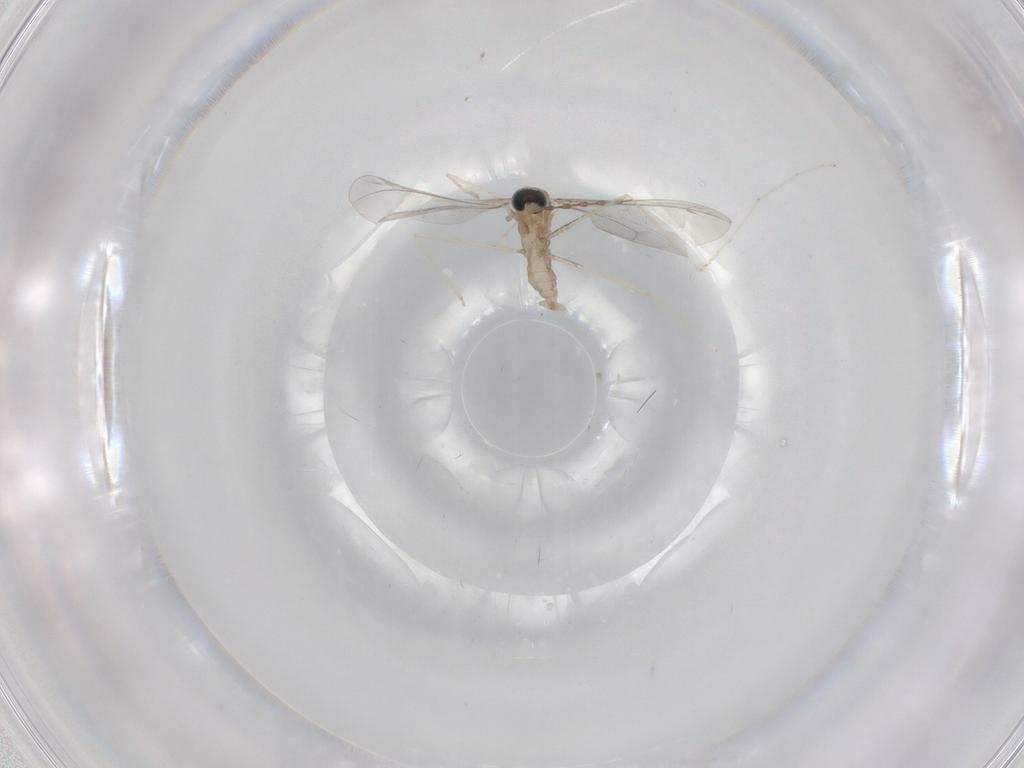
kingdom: Animalia
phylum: Arthropoda
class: Insecta
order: Diptera
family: Cecidomyiidae
